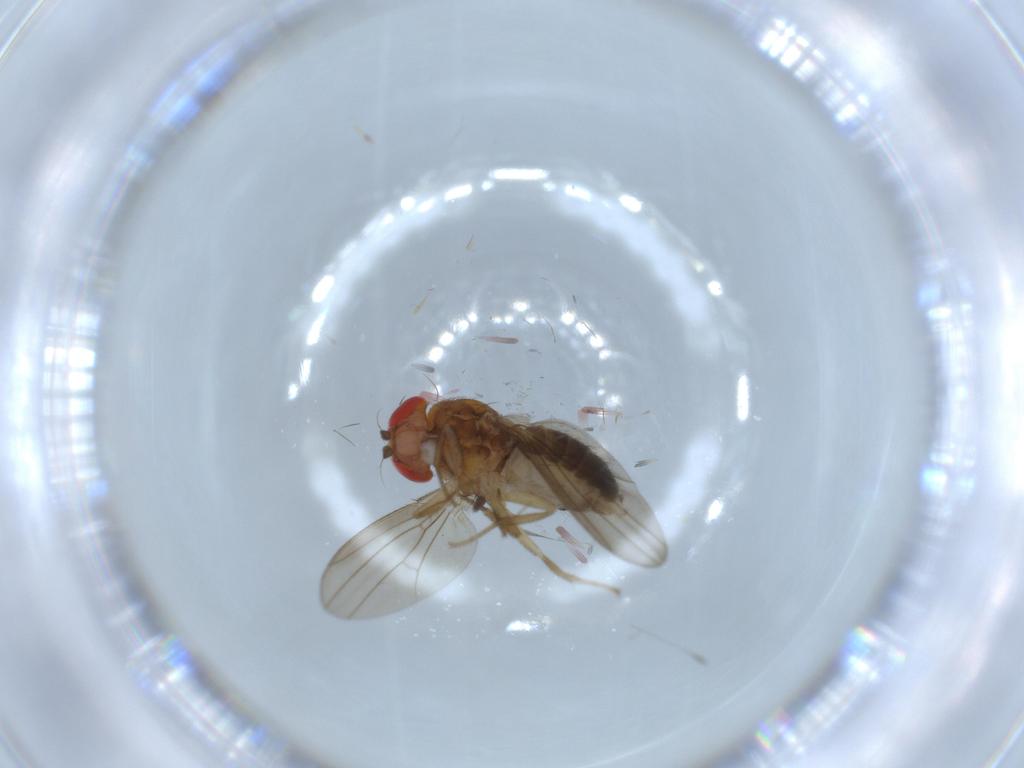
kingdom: Animalia
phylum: Arthropoda
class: Insecta
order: Diptera
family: Drosophilidae
